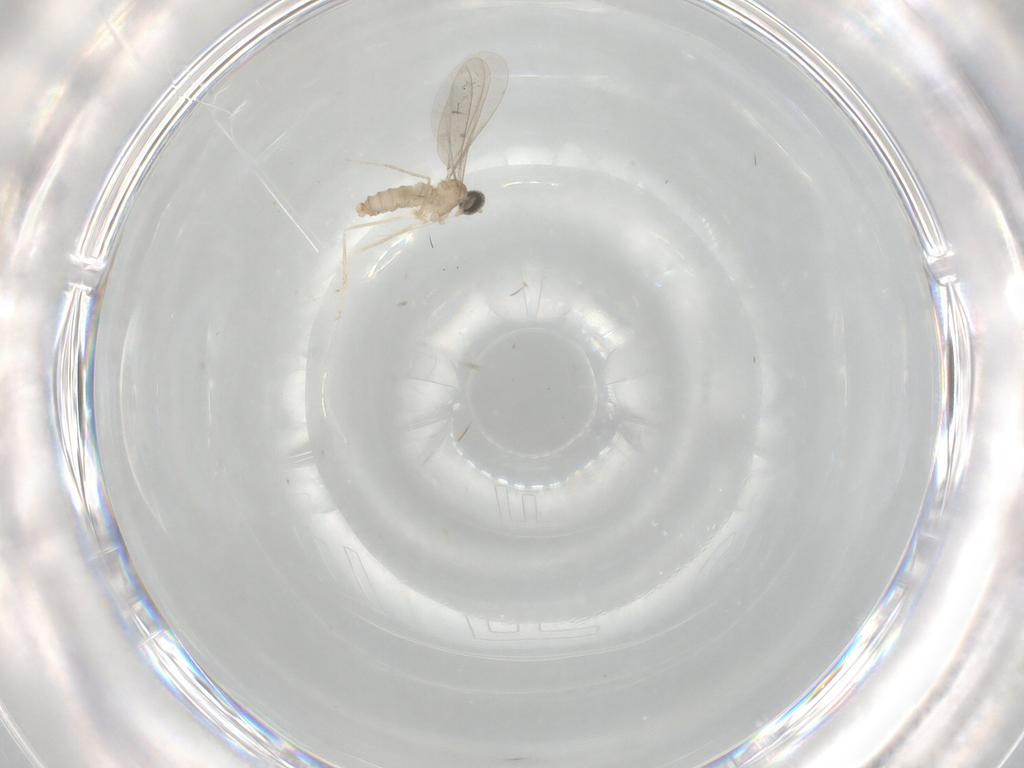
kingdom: Animalia
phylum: Arthropoda
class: Insecta
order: Diptera
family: Cecidomyiidae
